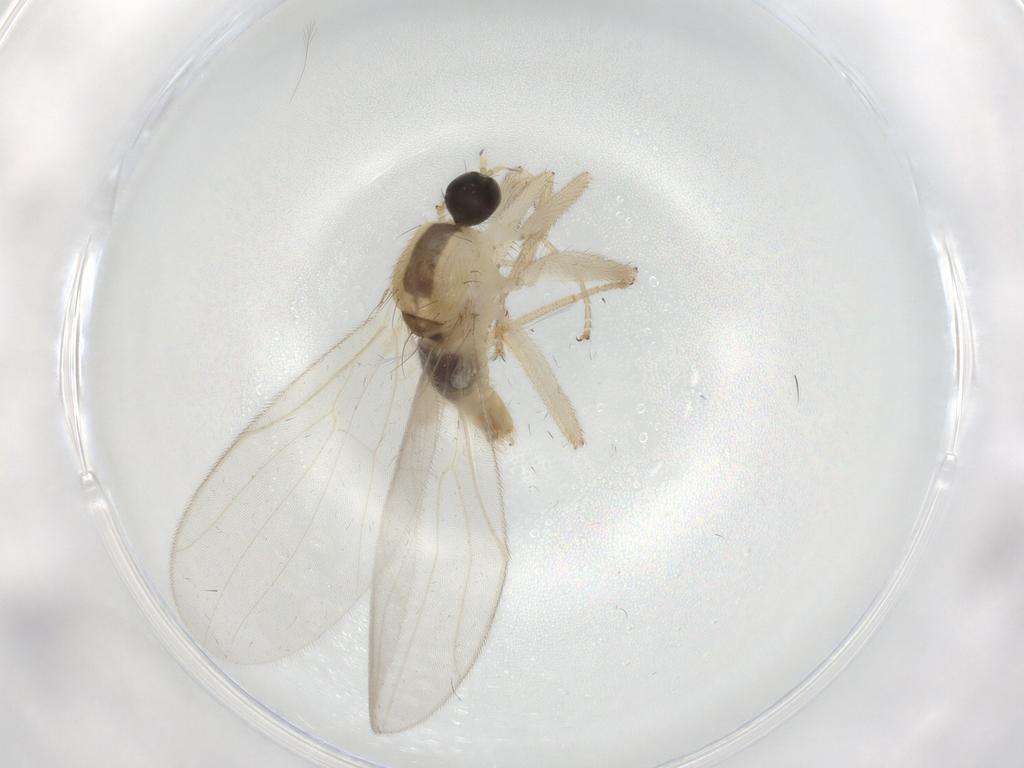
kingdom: Animalia
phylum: Arthropoda
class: Insecta
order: Diptera
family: Hybotidae
